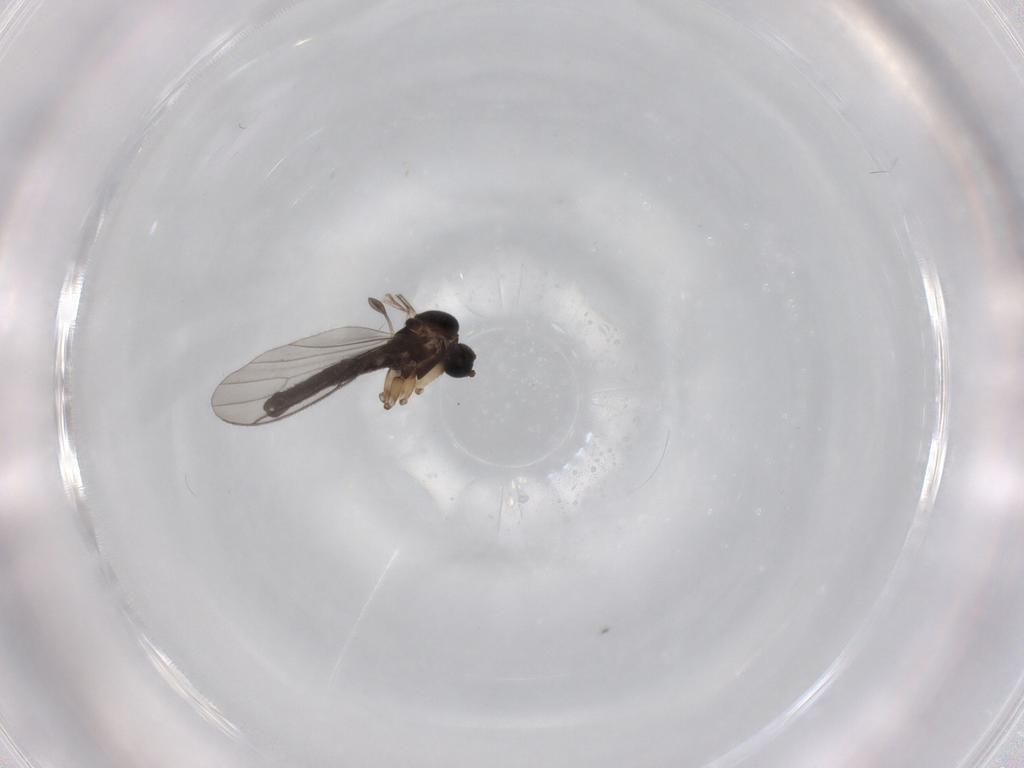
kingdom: Animalia
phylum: Arthropoda
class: Insecta
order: Diptera
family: Sciaridae
